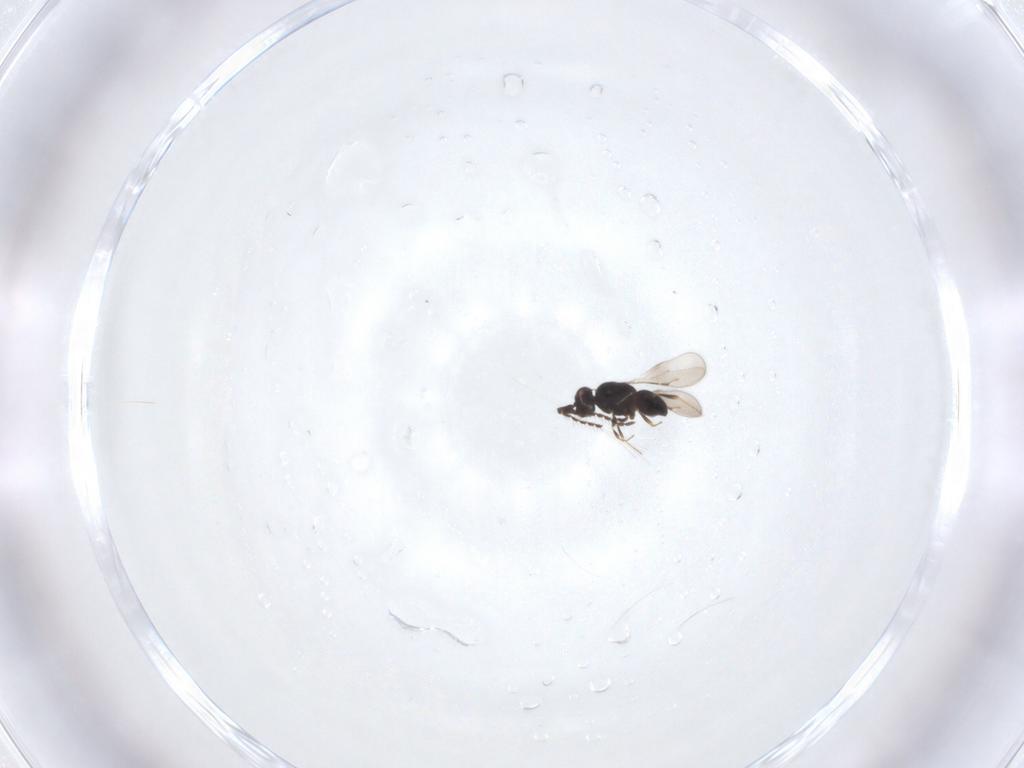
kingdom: Animalia
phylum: Arthropoda
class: Insecta
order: Hymenoptera
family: Ceraphronidae
